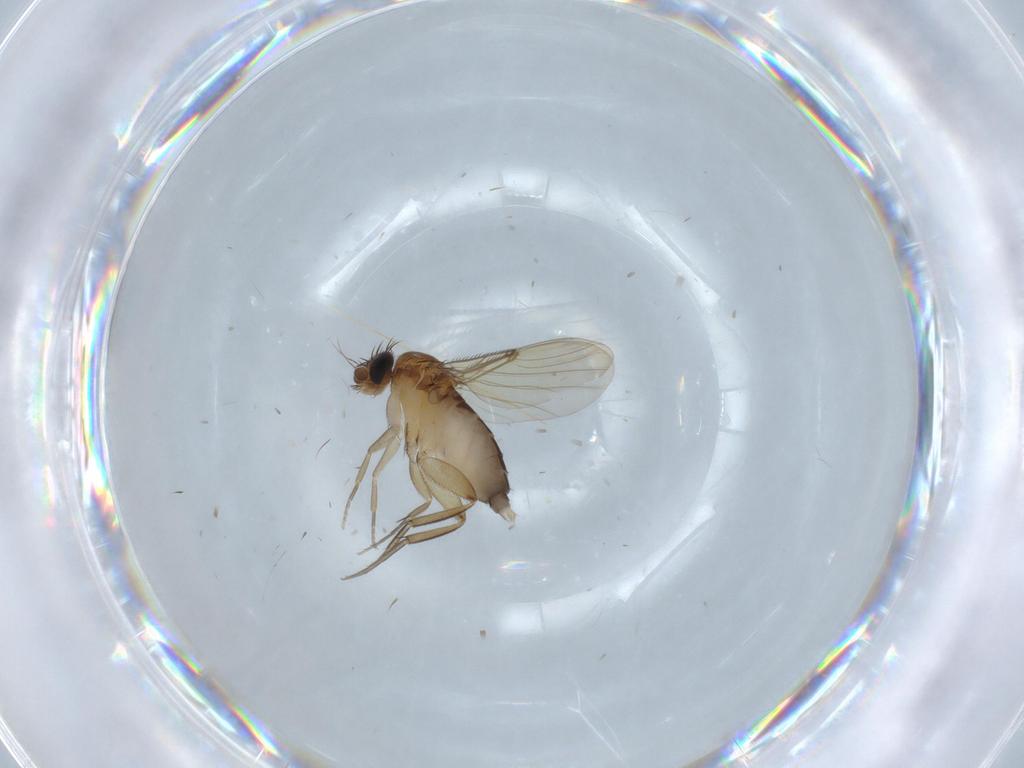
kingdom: Animalia
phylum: Arthropoda
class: Insecta
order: Diptera
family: Phoridae
